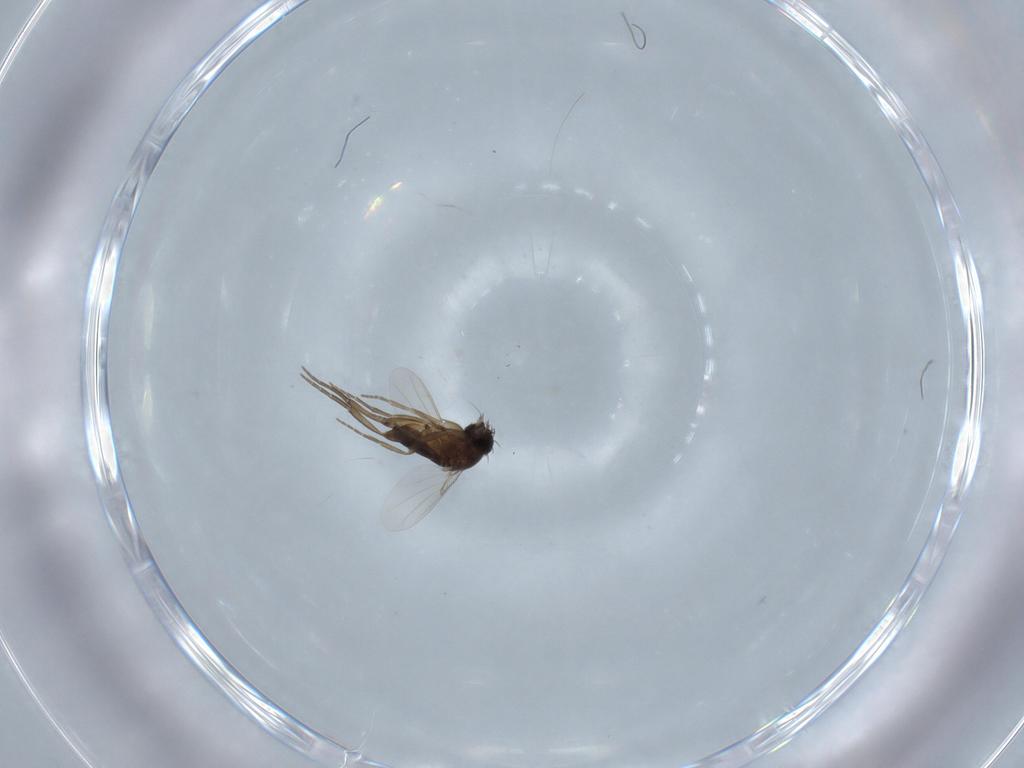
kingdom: Animalia
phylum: Arthropoda
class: Insecta
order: Diptera
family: Phoridae
